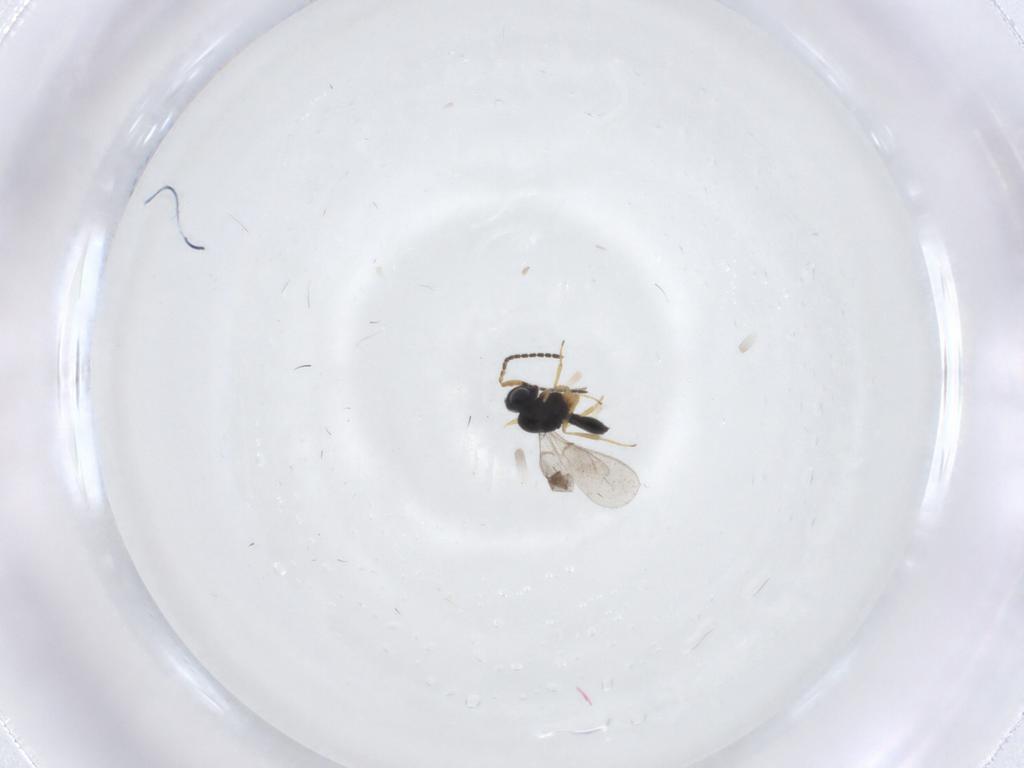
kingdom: Animalia
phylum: Arthropoda
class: Insecta
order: Hymenoptera
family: Scelionidae
